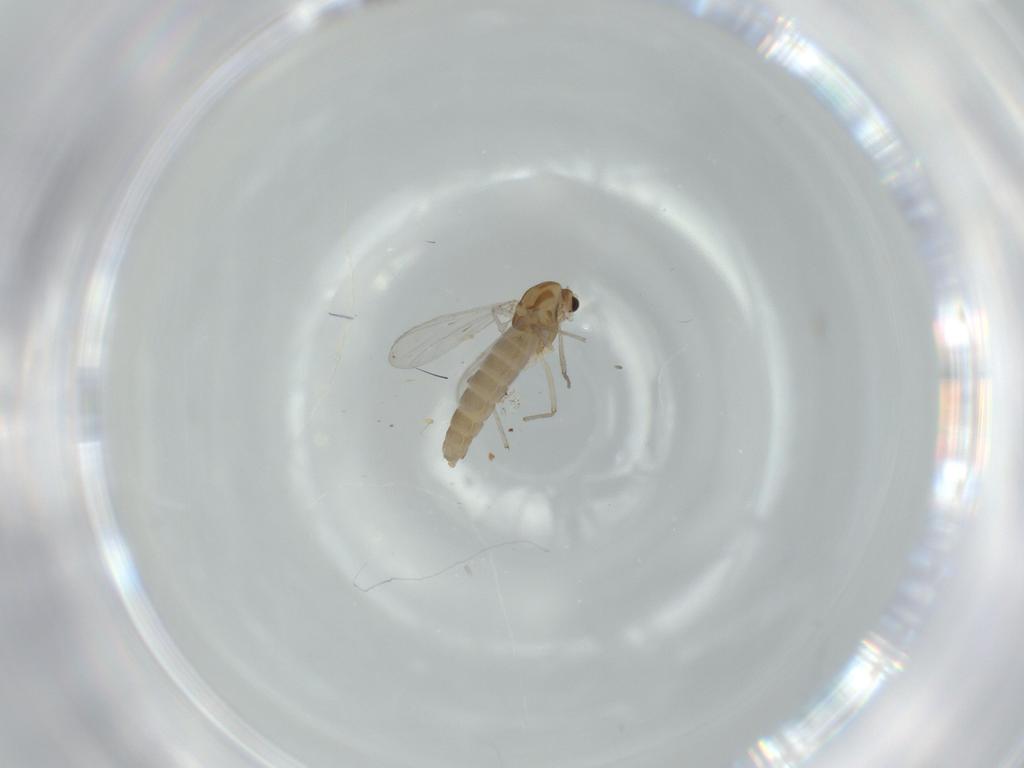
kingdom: Animalia
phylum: Arthropoda
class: Insecta
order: Diptera
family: Chironomidae
